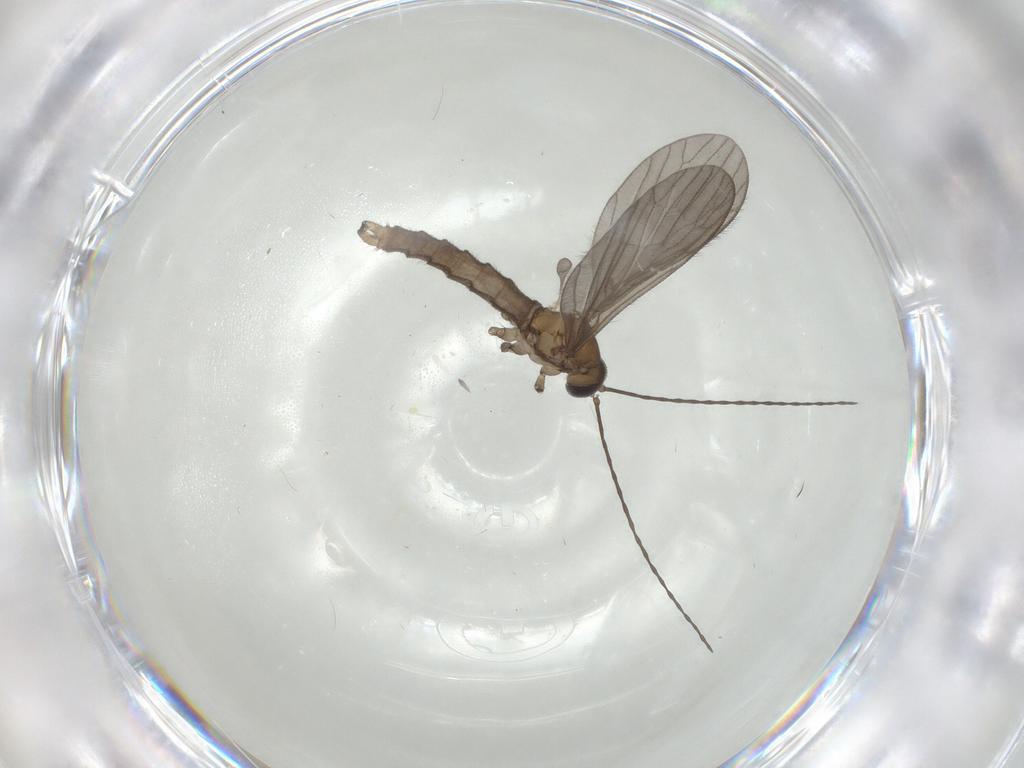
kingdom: Animalia
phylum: Arthropoda
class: Insecta
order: Diptera
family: Limoniidae
